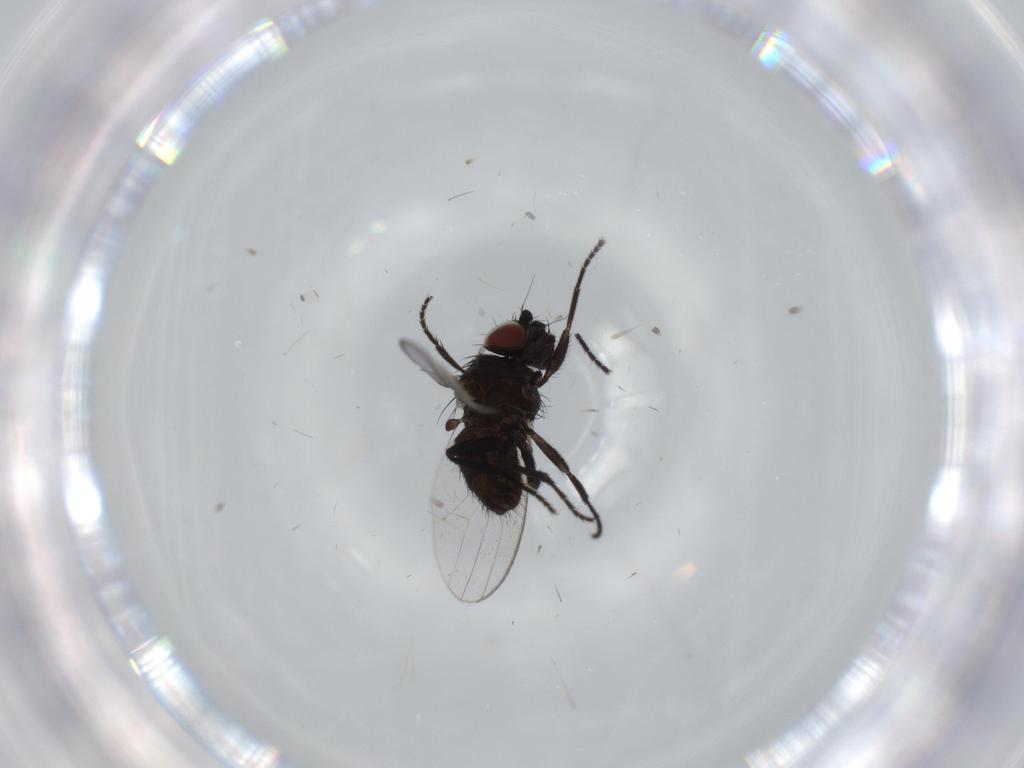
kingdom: Animalia
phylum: Arthropoda
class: Insecta
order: Diptera
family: Milichiidae
